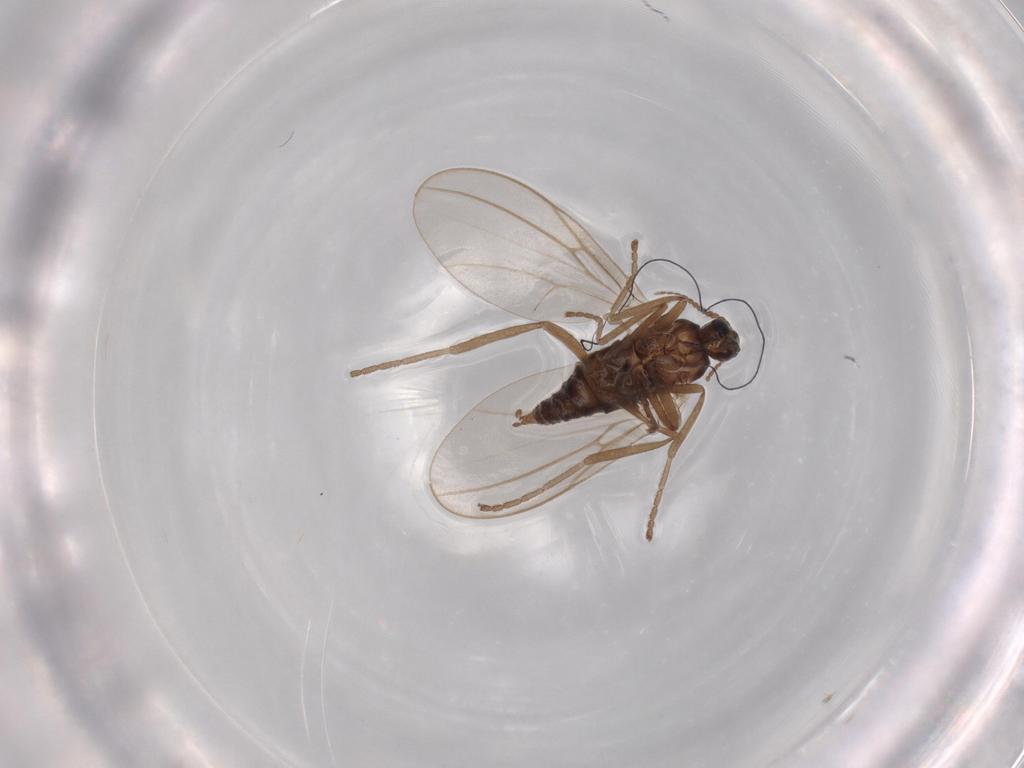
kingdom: Animalia
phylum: Arthropoda
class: Insecta
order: Diptera
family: Cecidomyiidae
